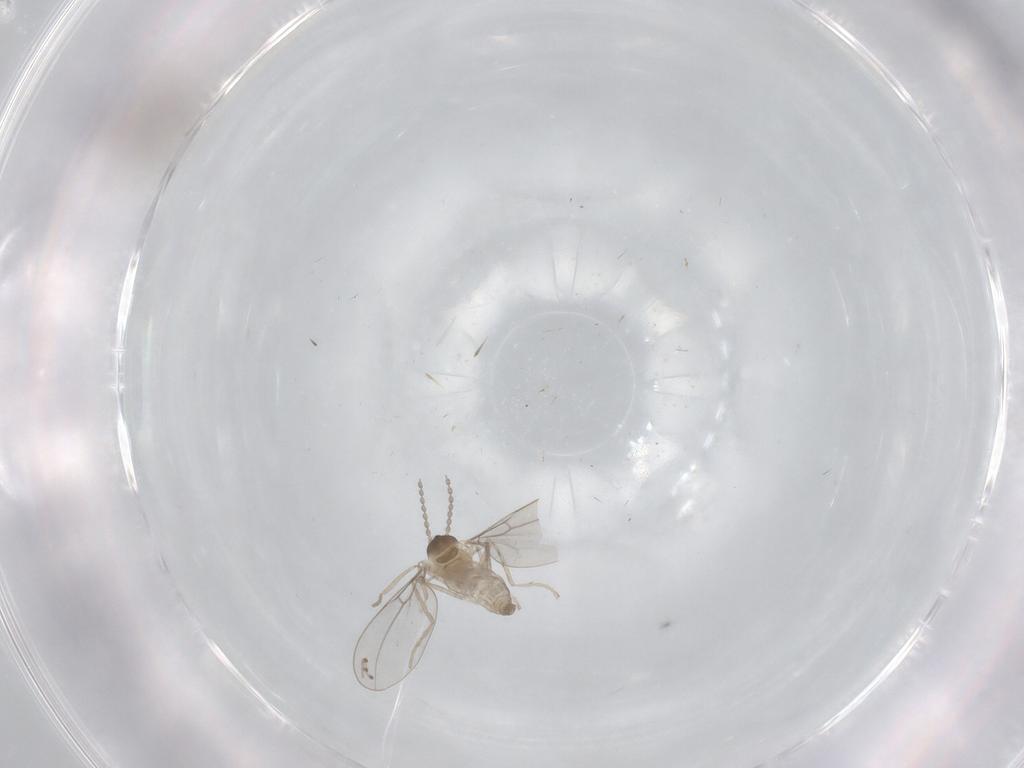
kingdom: Animalia
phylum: Arthropoda
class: Insecta
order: Diptera
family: Cecidomyiidae
